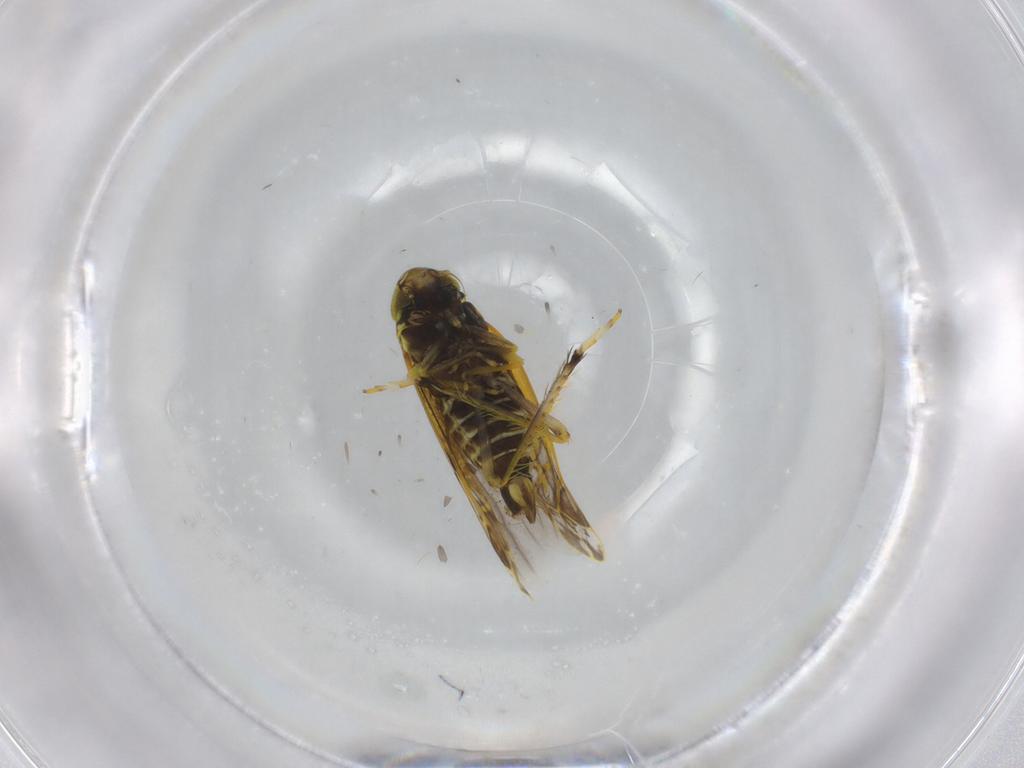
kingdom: Animalia
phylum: Arthropoda
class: Insecta
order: Hemiptera
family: Cicadellidae
